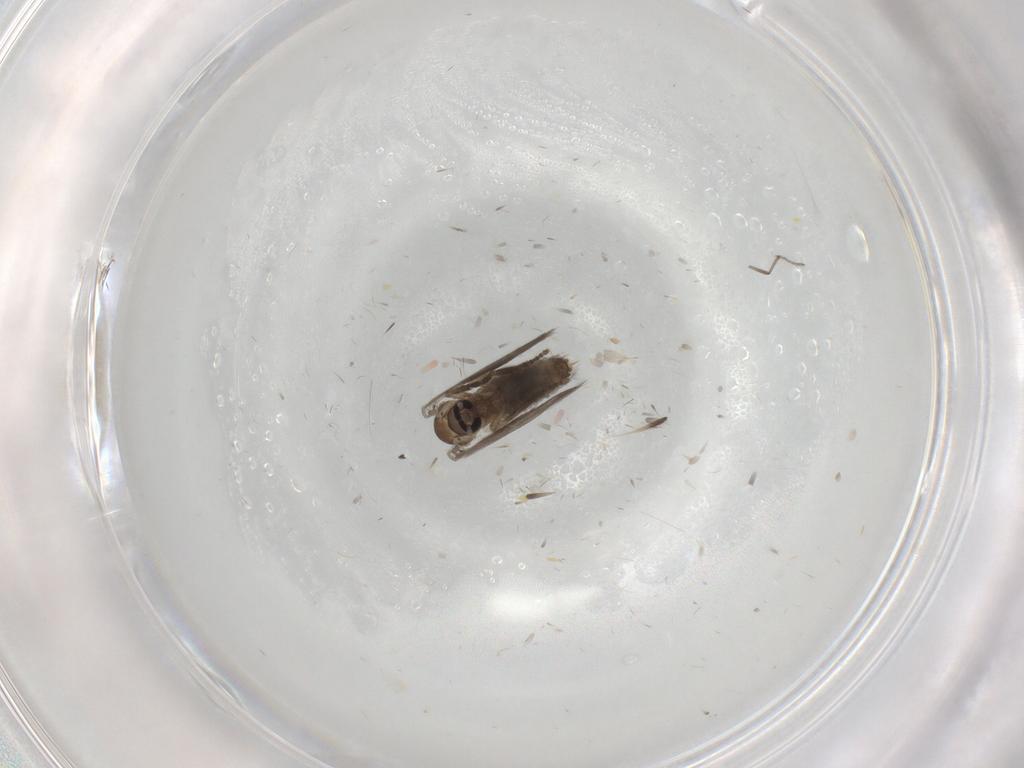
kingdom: Animalia
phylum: Arthropoda
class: Insecta
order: Diptera
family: Ceratopogonidae
